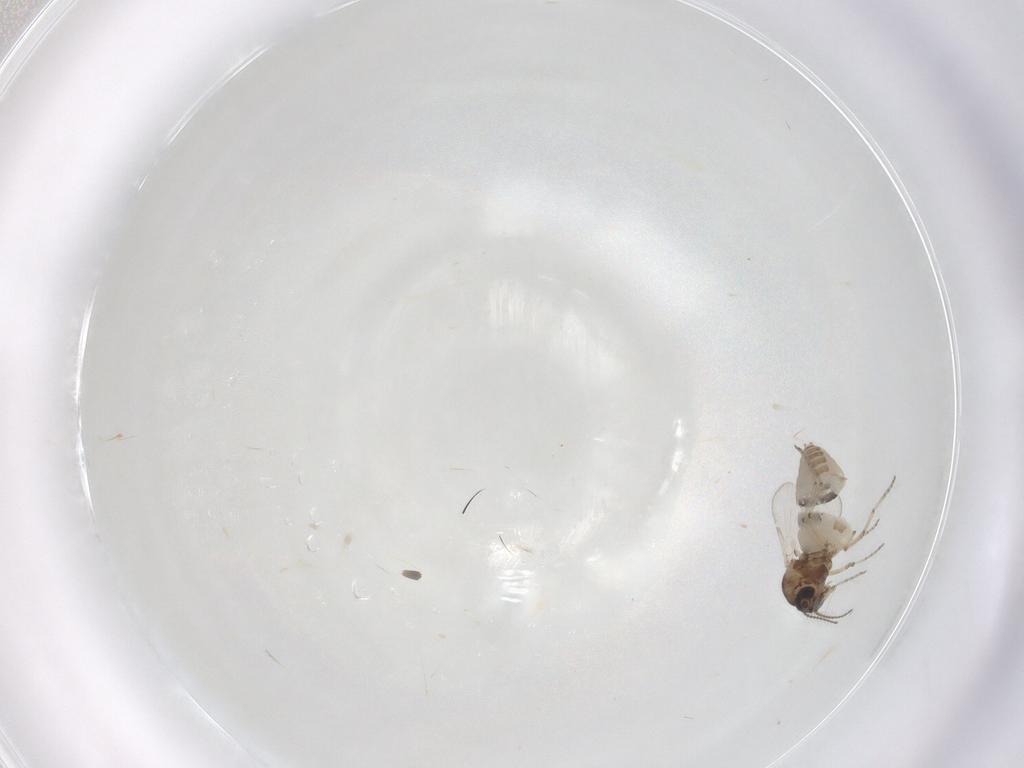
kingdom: Animalia
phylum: Arthropoda
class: Insecta
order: Diptera
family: Ceratopogonidae
